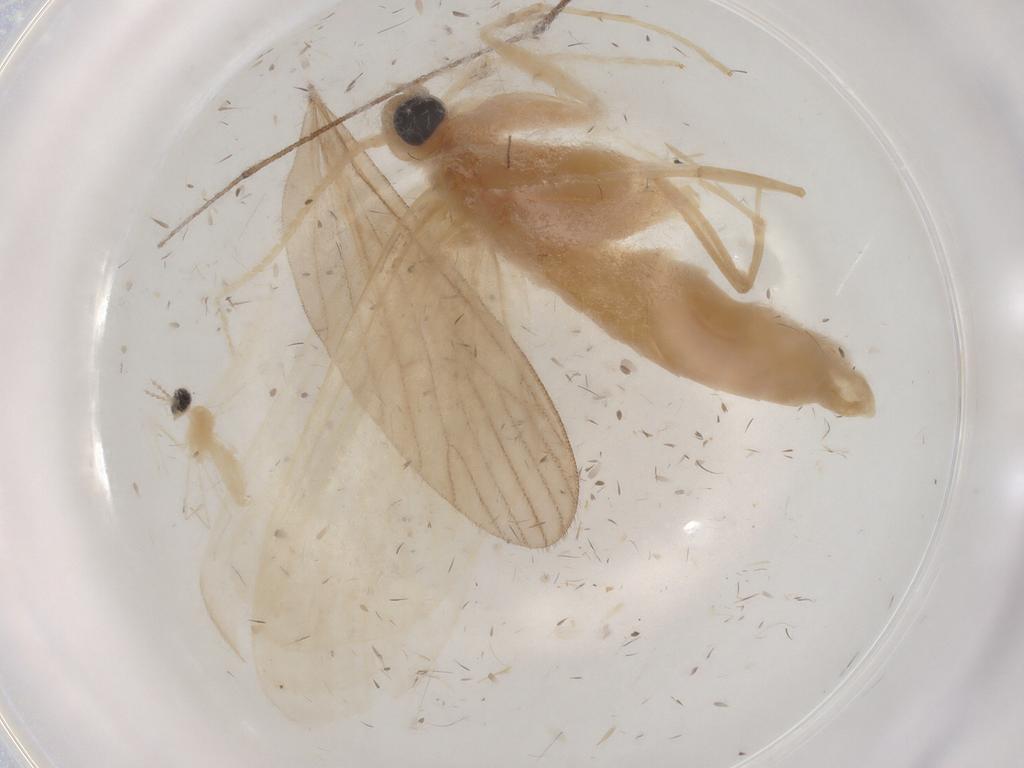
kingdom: Animalia
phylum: Arthropoda
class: Insecta
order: Lepidoptera
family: Crambidae
